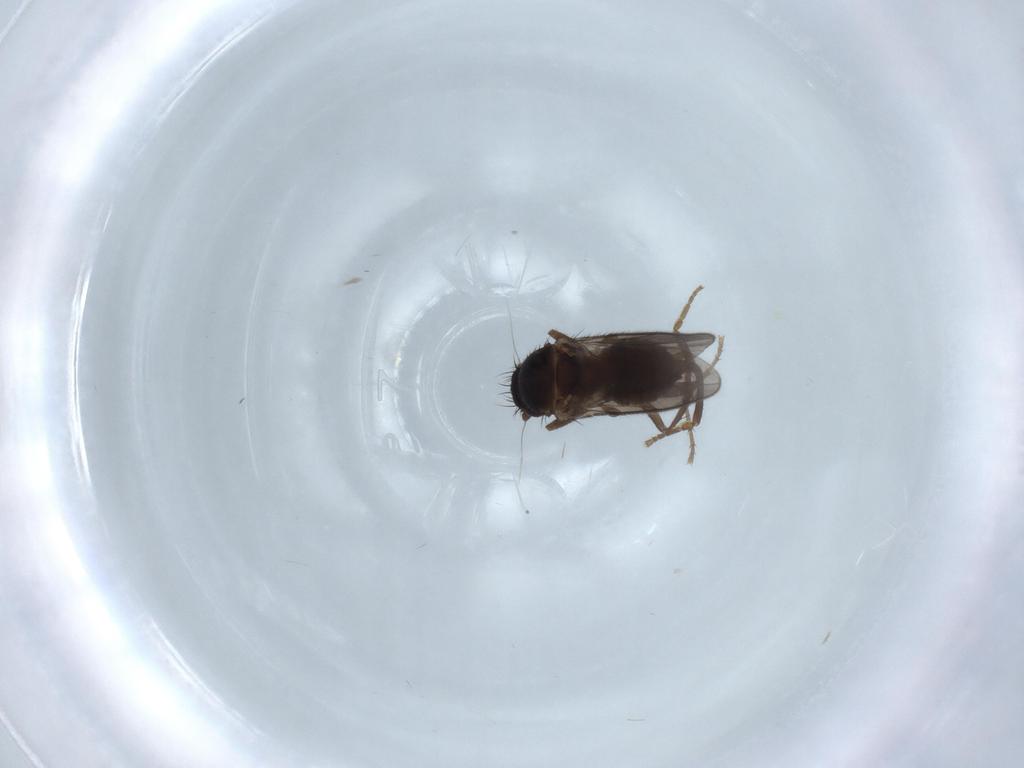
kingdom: Animalia
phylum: Arthropoda
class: Insecta
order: Diptera
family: Sphaeroceridae
